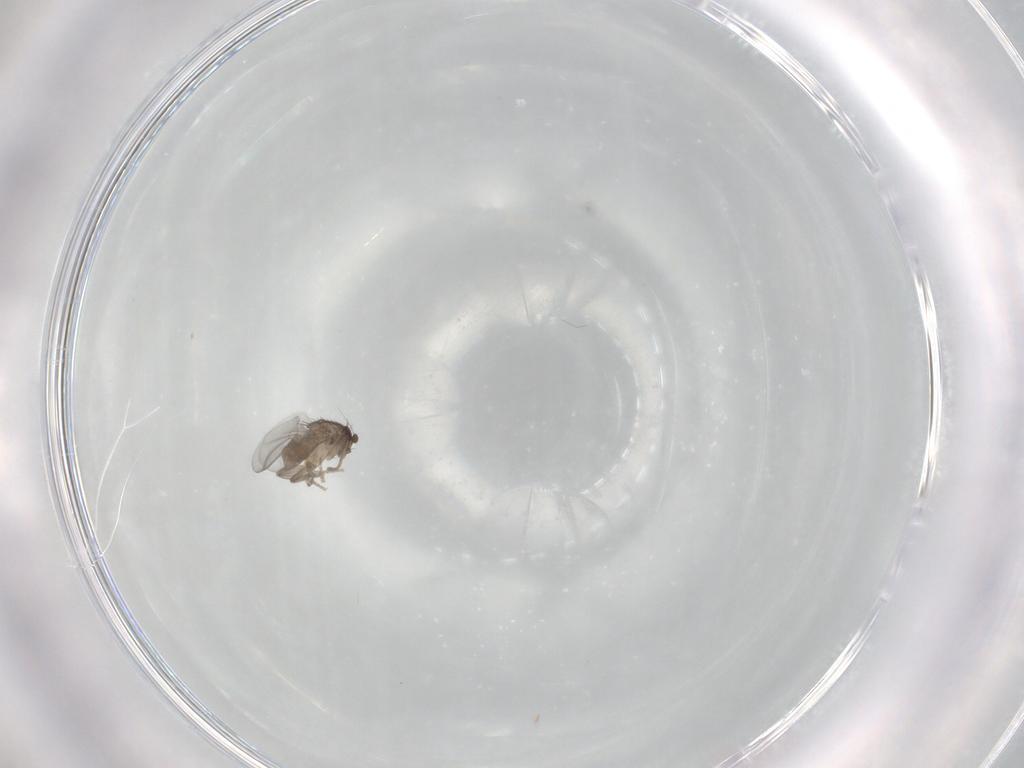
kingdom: Animalia
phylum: Arthropoda
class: Insecta
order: Diptera
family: Sphaeroceridae
